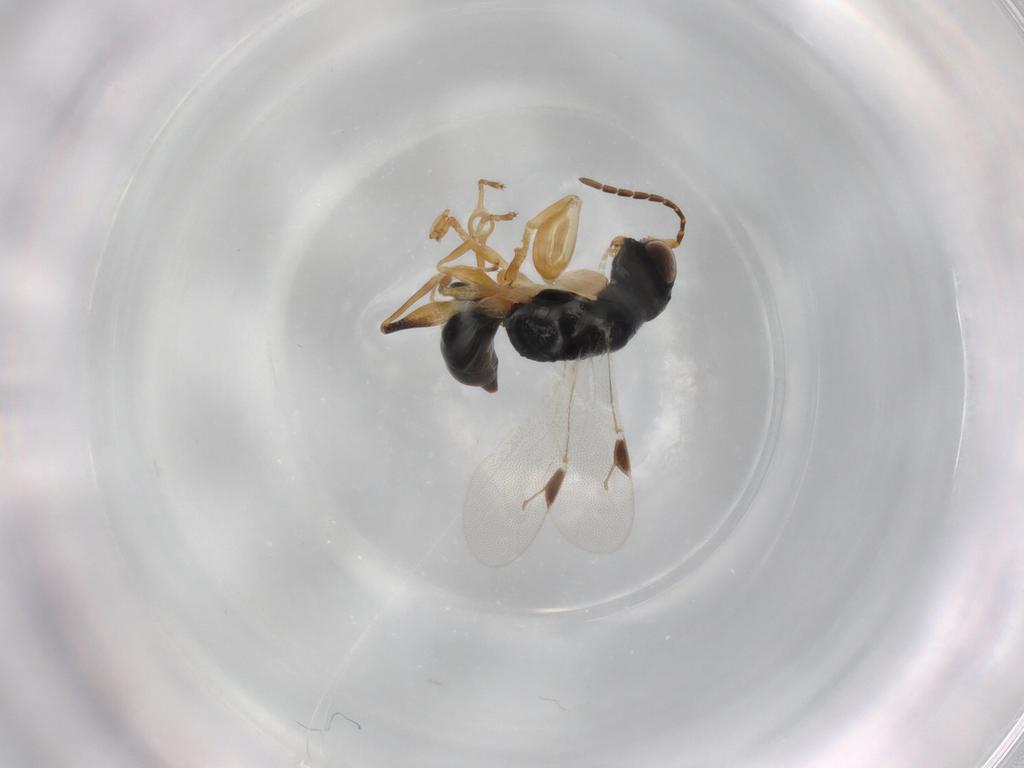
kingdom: Animalia
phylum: Arthropoda
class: Insecta
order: Hymenoptera
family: Dryinidae
